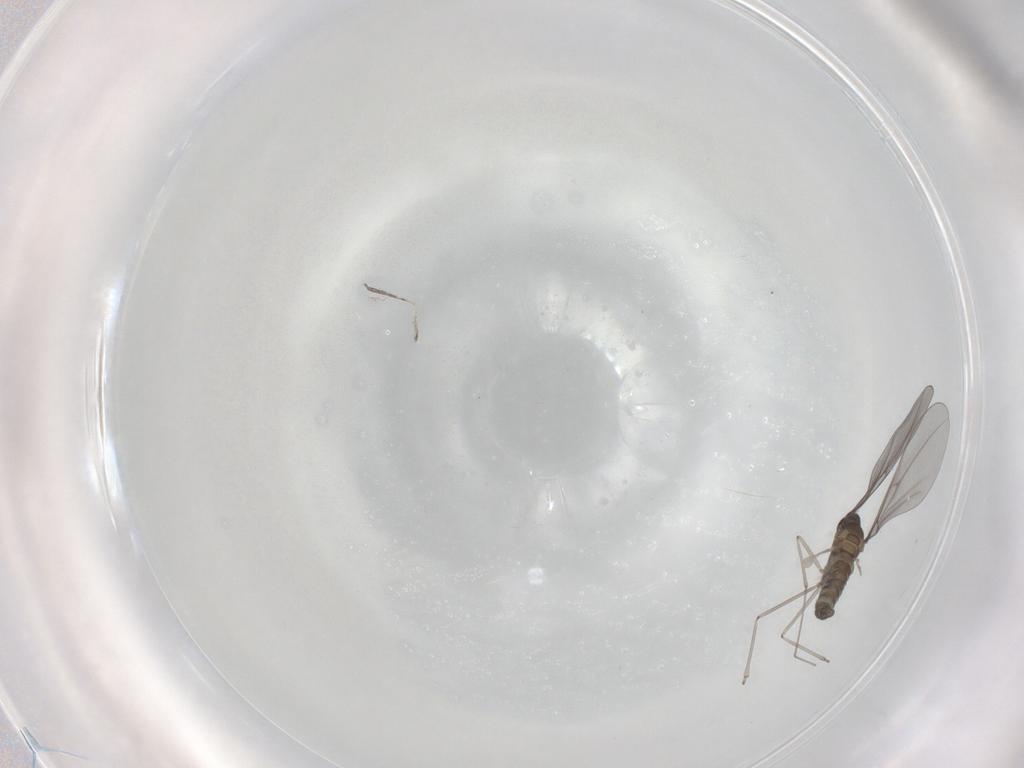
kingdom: Animalia
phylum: Arthropoda
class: Insecta
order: Diptera
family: Cecidomyiidae
